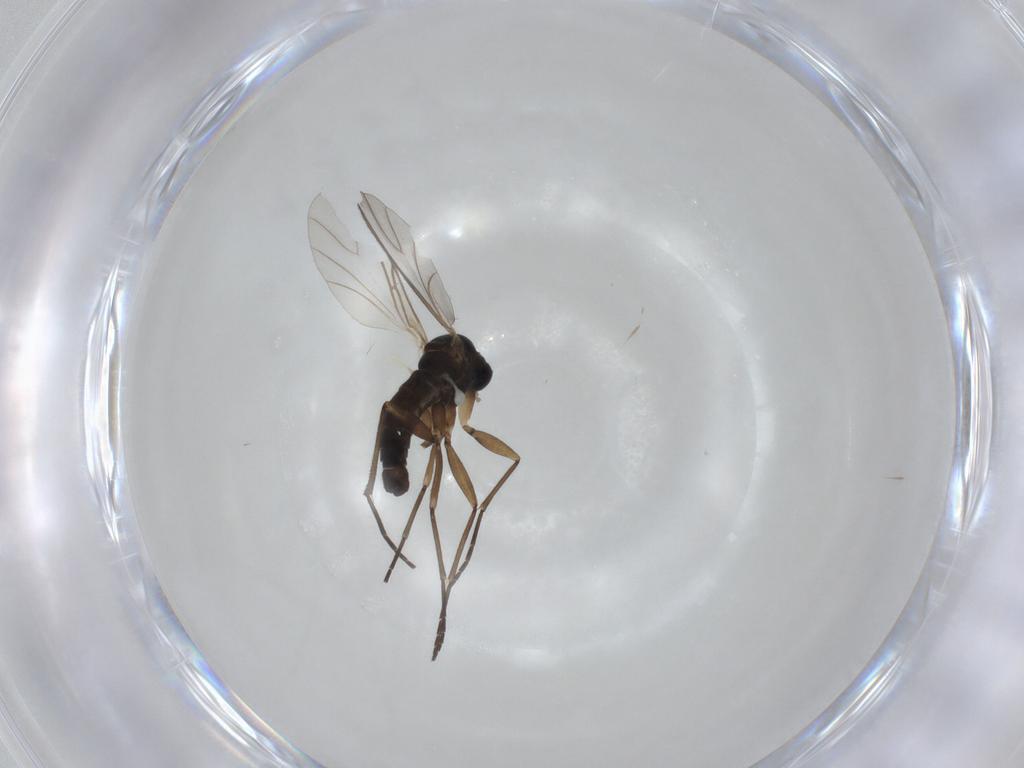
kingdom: Animalia
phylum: Arthropoda
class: Insecta
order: Diptera
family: Sciaridae
